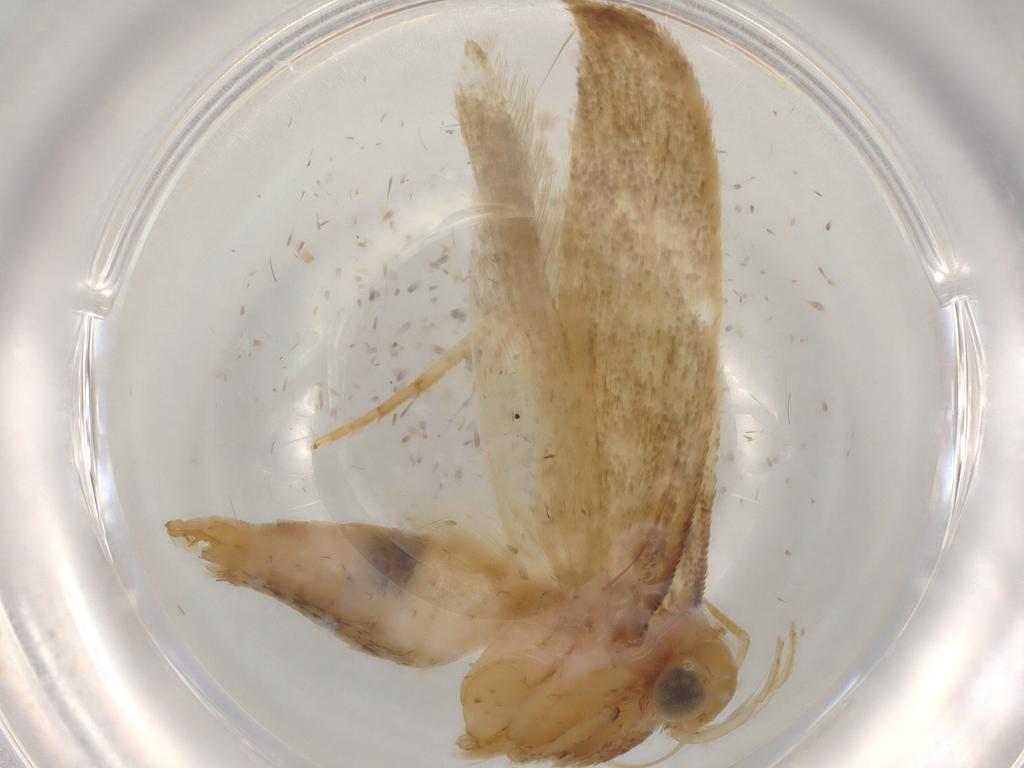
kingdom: Animalia
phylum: Arthropoda
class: Insecta
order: Lepidoptera
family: Gelechiidae
